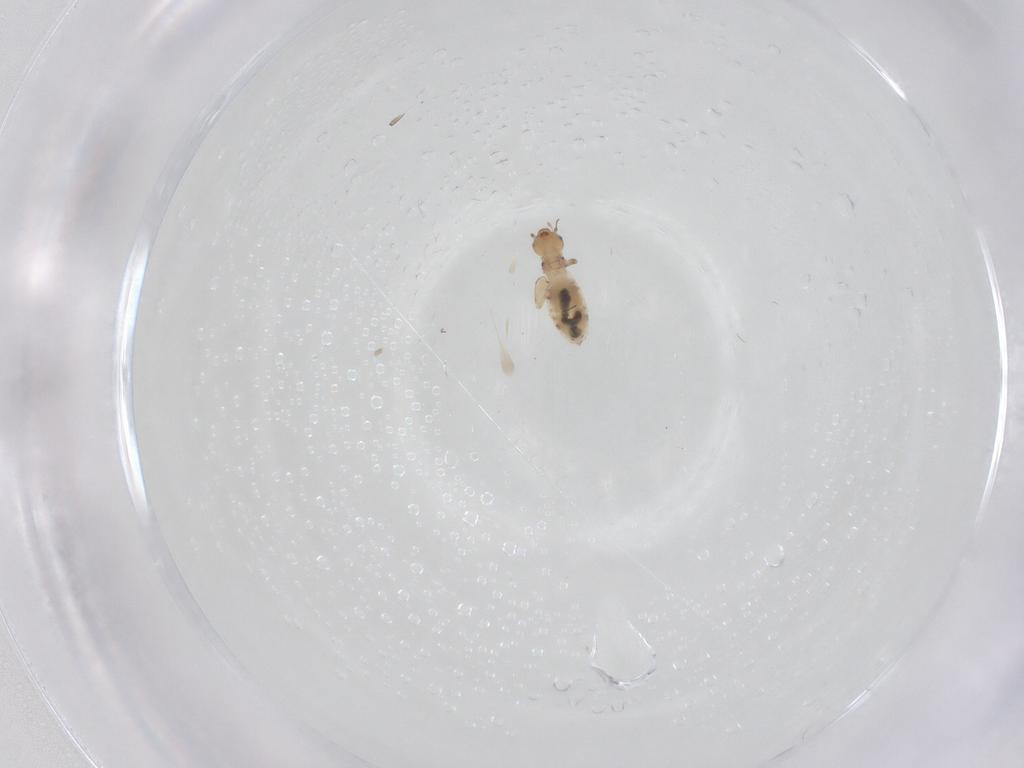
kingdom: Animalia
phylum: Arthropoda
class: Insecta
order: Psocodea
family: Liposcelididae
